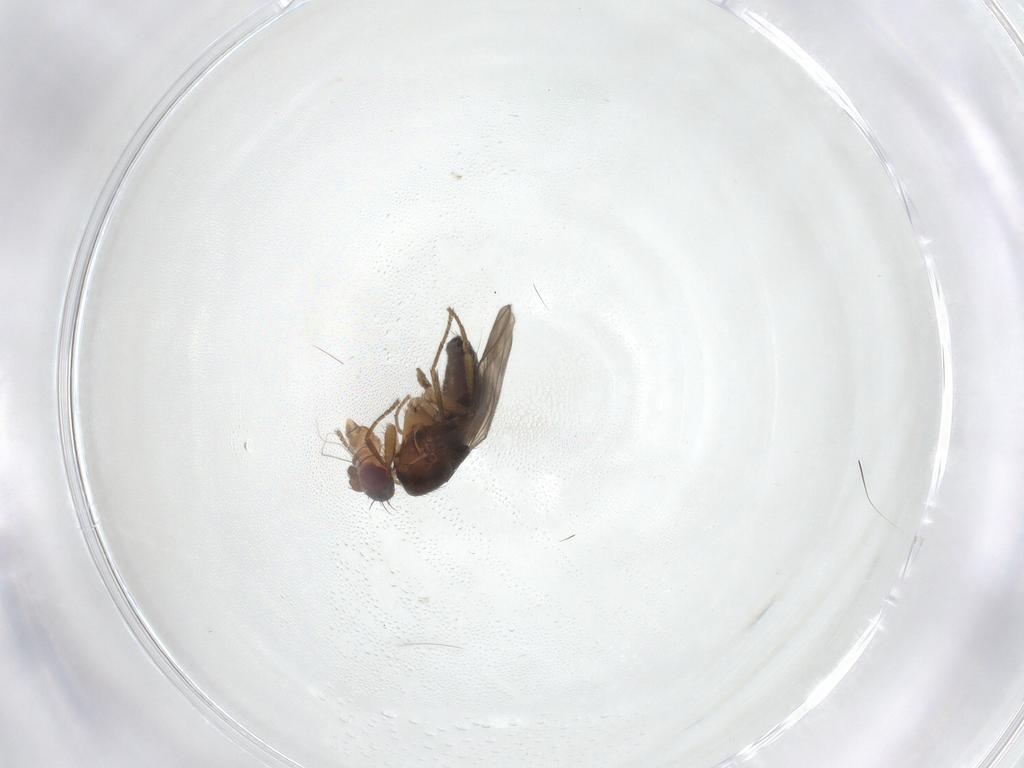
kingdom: Animalia
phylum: Arthropoda
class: Insecta
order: Diptera
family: Sphaeroceridae
